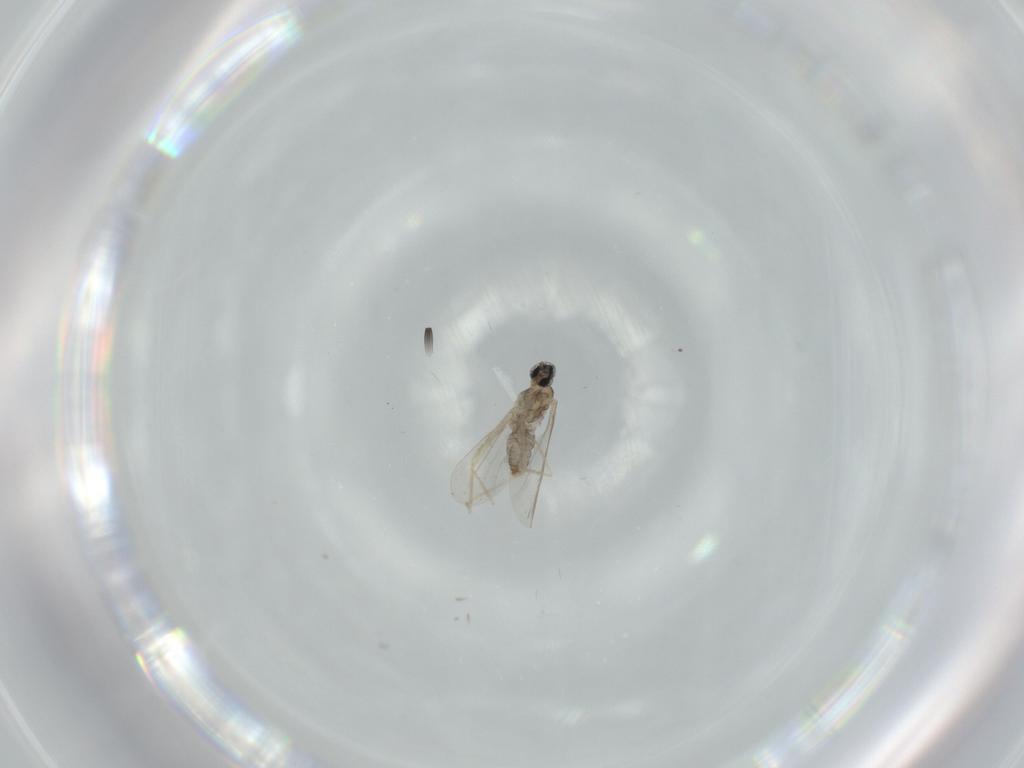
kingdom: Animalia
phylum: Arthropoda
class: Insecta
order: Diptera
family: Cecidomyiidae
